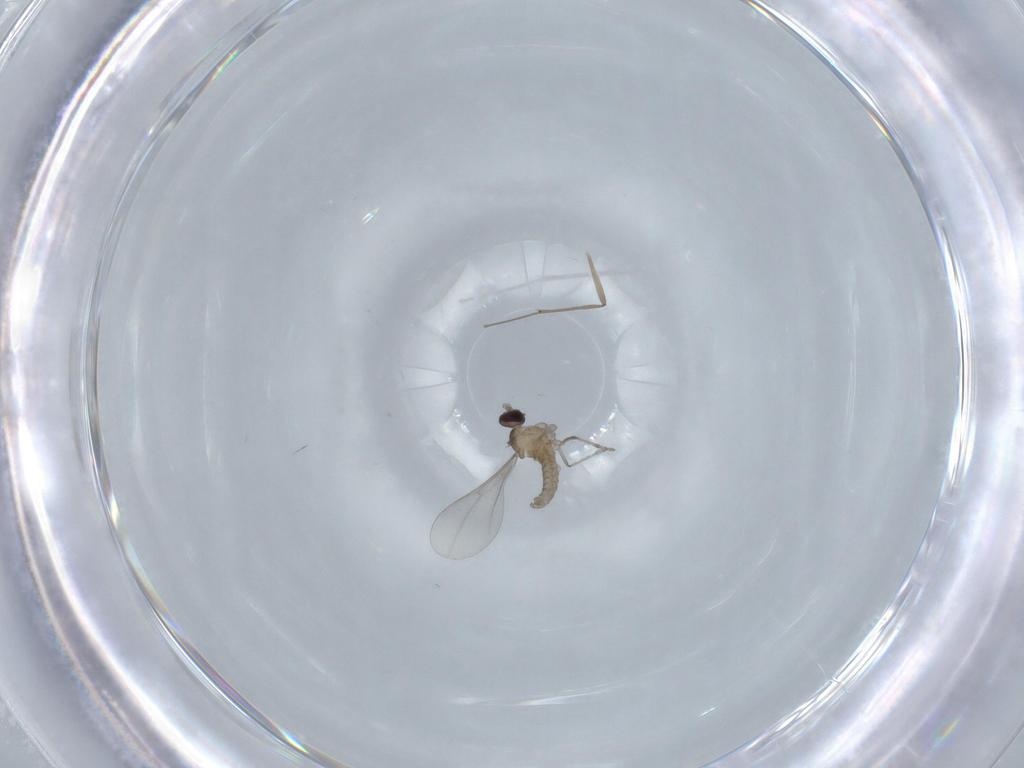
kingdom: Animalia
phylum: Arthropoda
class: Insecta
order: Diptera
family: Cecidomyiidae
